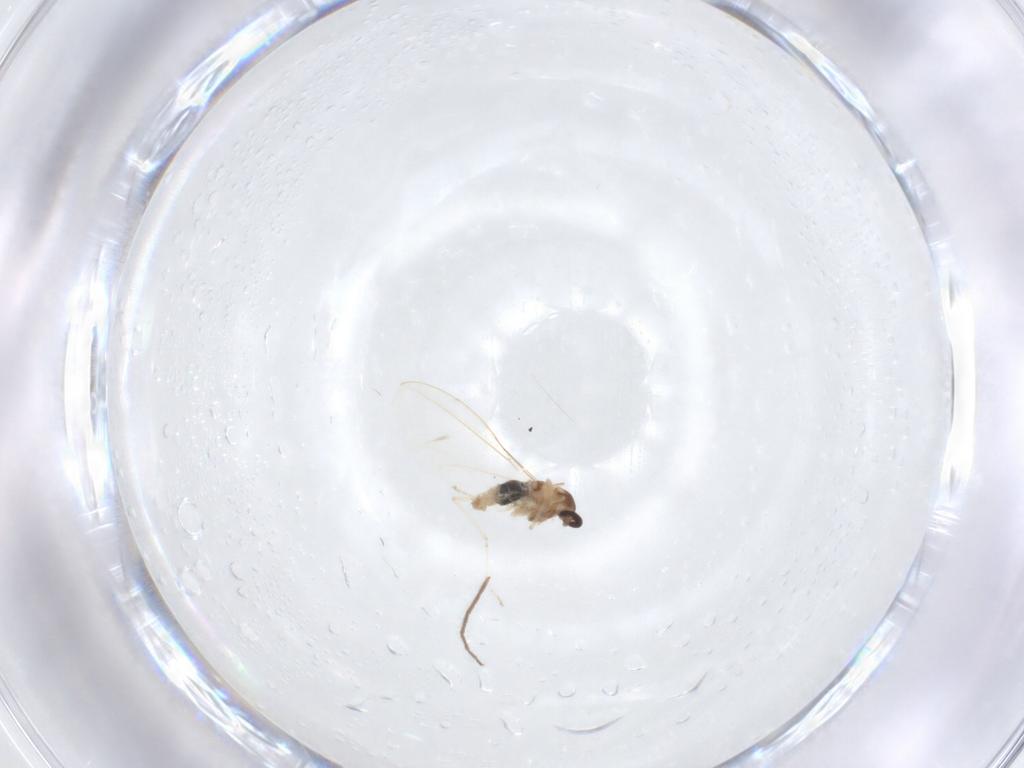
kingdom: Animalia
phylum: Arthropoda
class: Insecta
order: Diptera
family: Chironomidae
